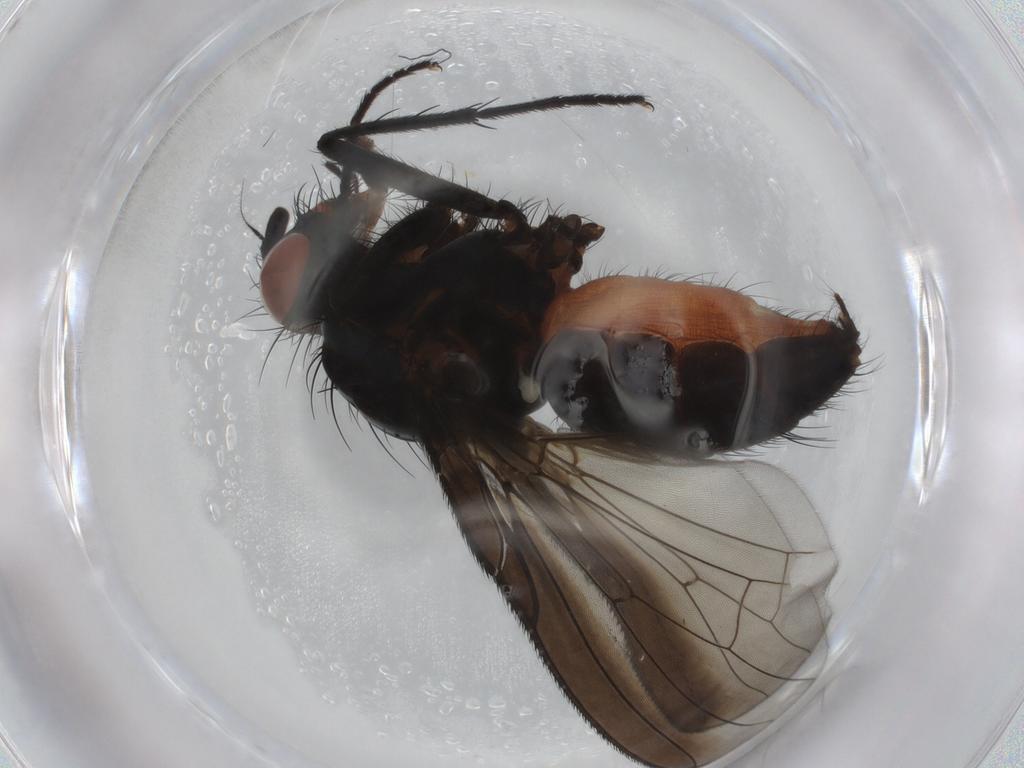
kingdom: Animalia
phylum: Arthropoda
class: Insecta
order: Diptera
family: Anthomyiidae
